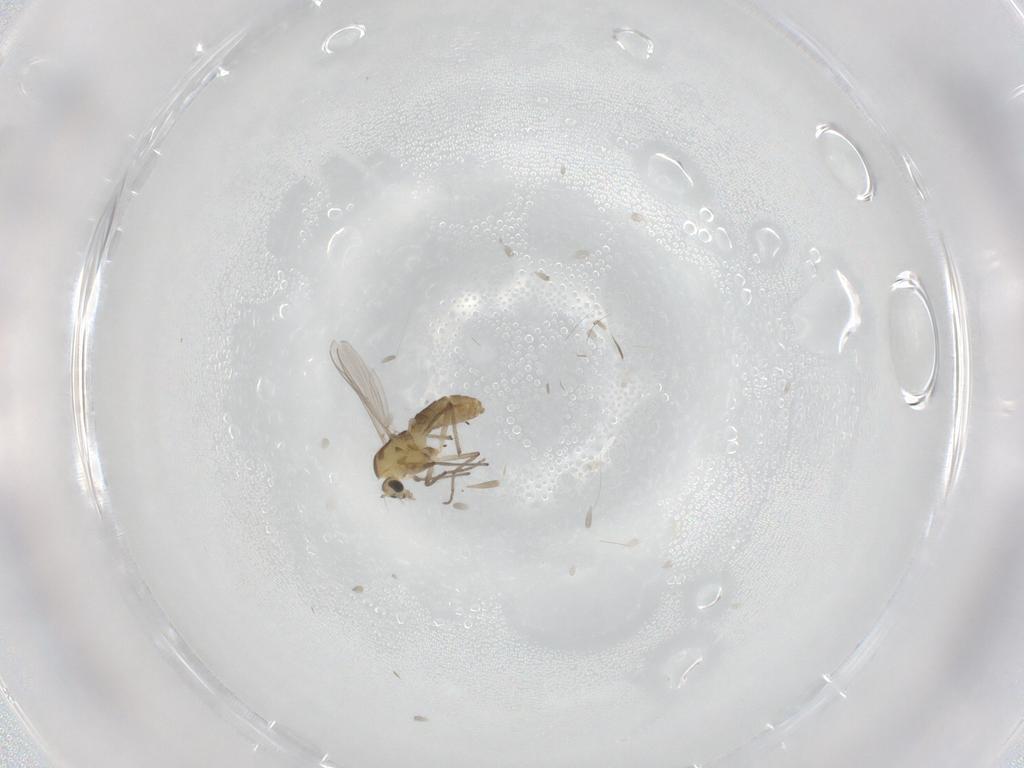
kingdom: Animalia
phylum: Arthropoda
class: Insecta
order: Diptera
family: Chironomidae
